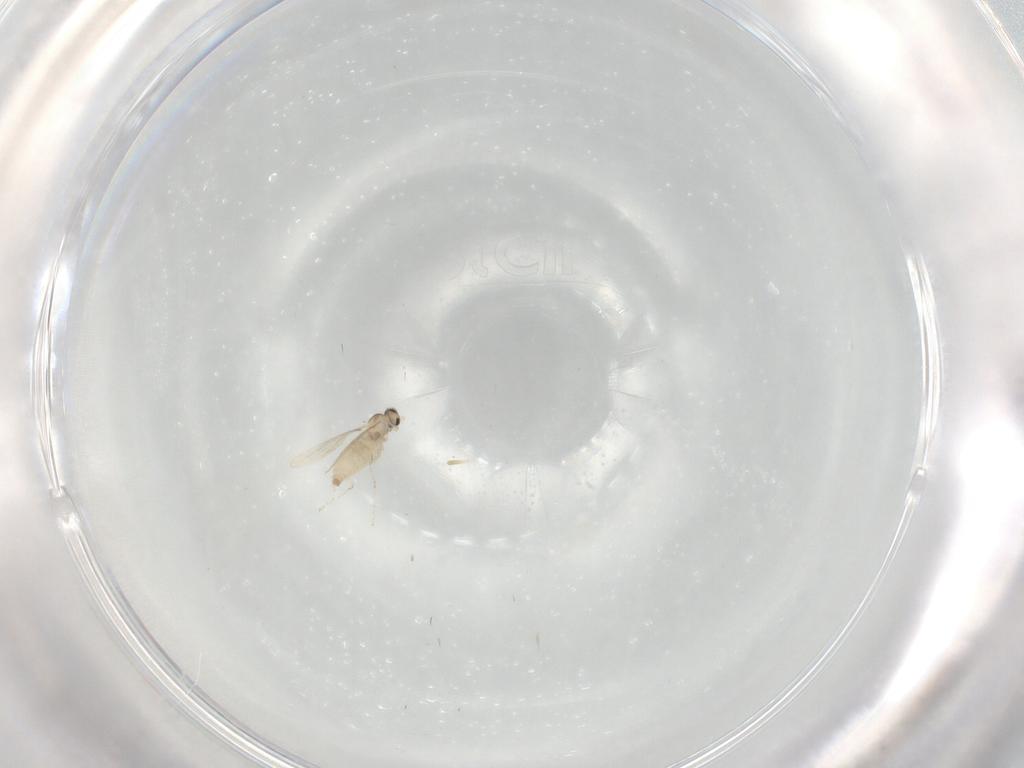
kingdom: Animalia
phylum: Arthropoda
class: Insecta
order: Diptera
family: Cecidomyiidae
